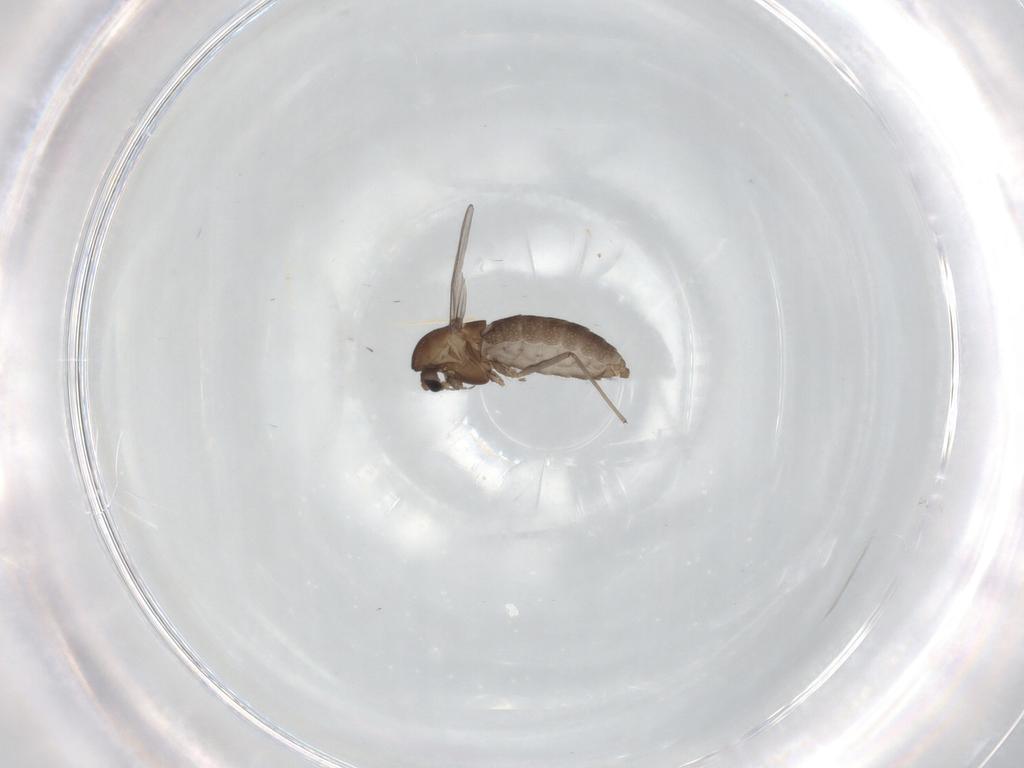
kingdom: Animalia
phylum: Arthropoda
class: Insecta
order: Diptera
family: Chironomidae
